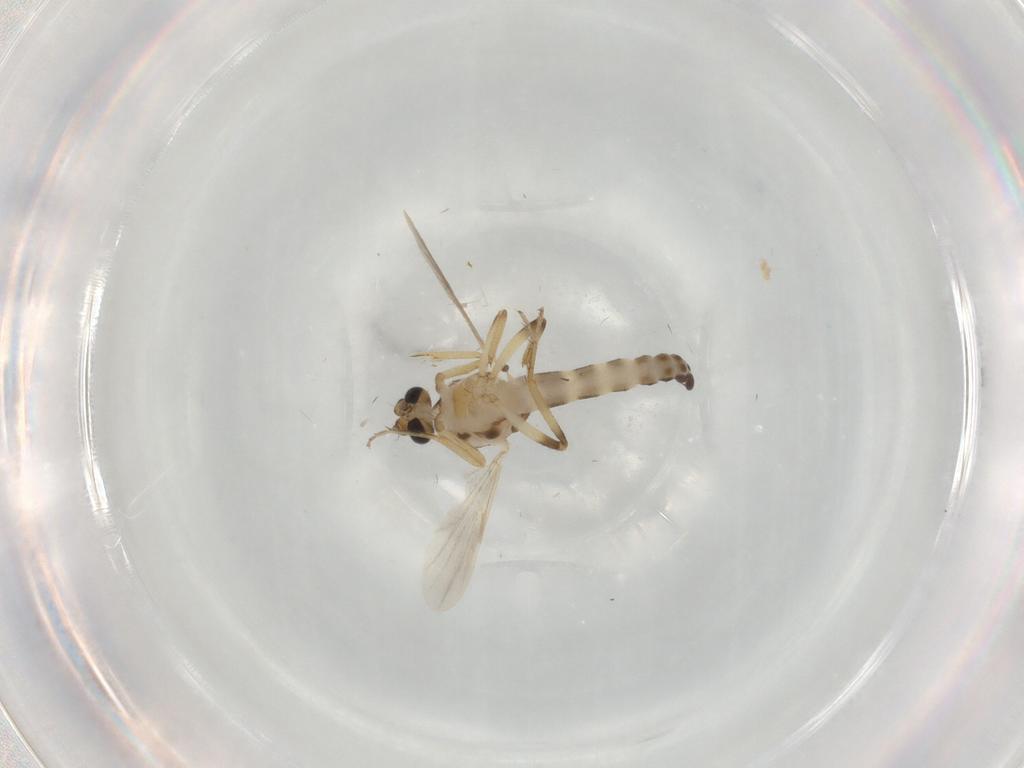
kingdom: Animalia
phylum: Arthropoda
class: Insecta
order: Diptera
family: Ceratopogonidae
